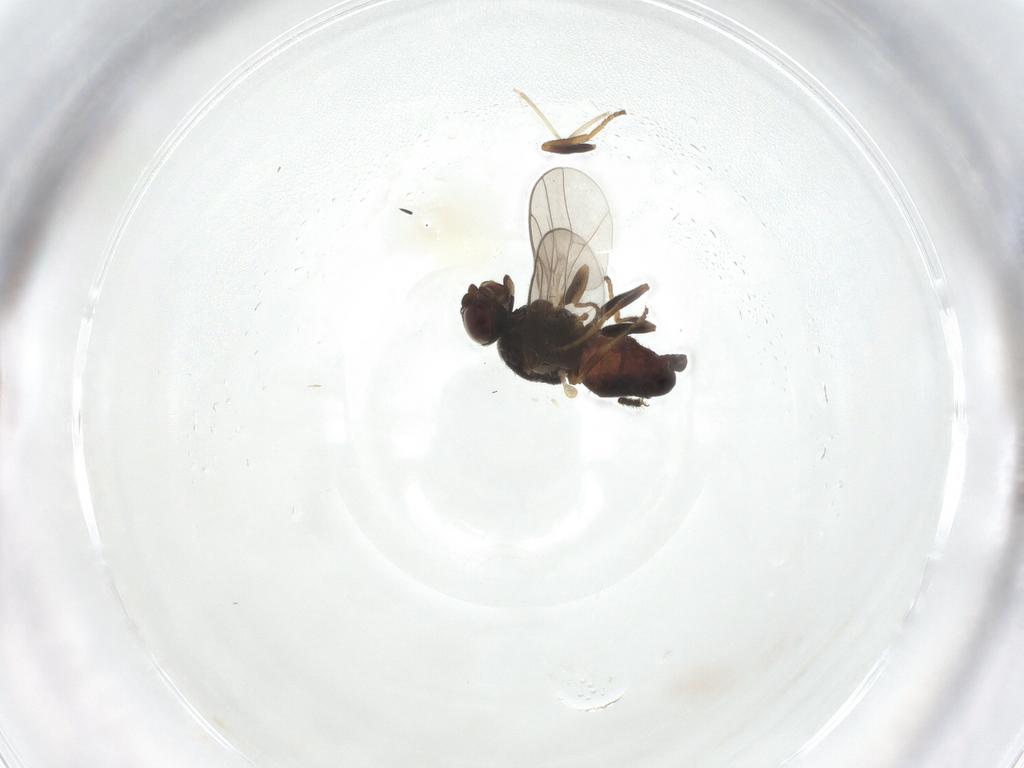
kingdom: Animalia
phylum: Arthropoda
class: Insecta
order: Diptera
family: Chloropidae
